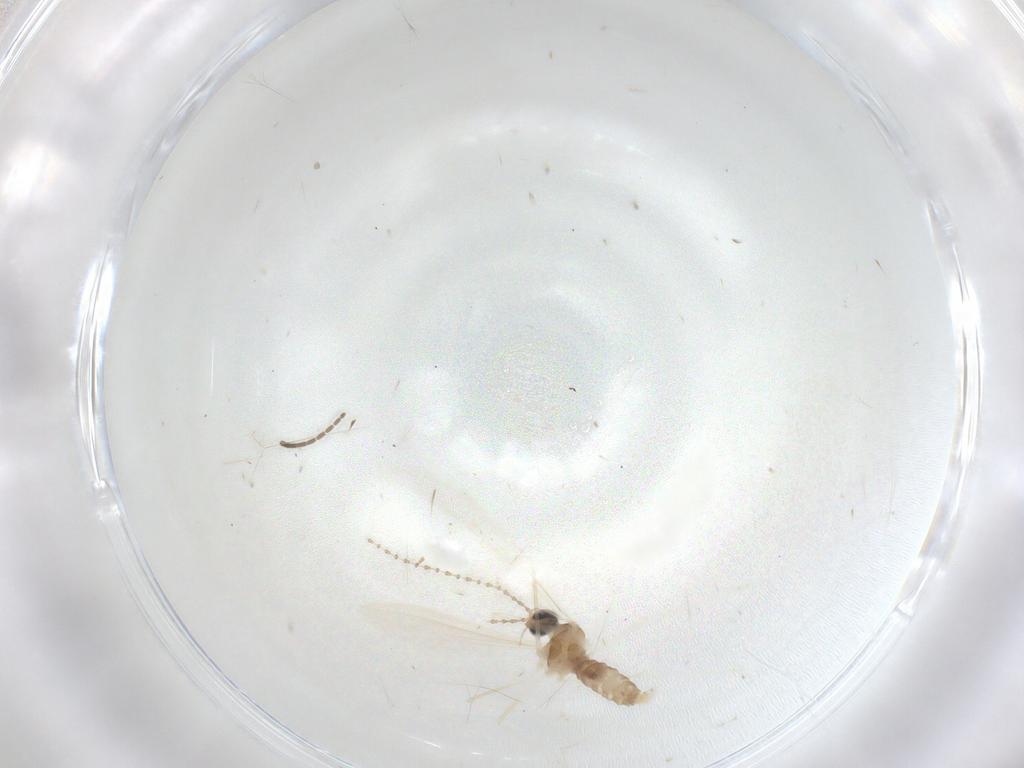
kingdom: Animalia
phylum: Arthropoda
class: Insecta
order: Diptera
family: Cecidomyiidae
